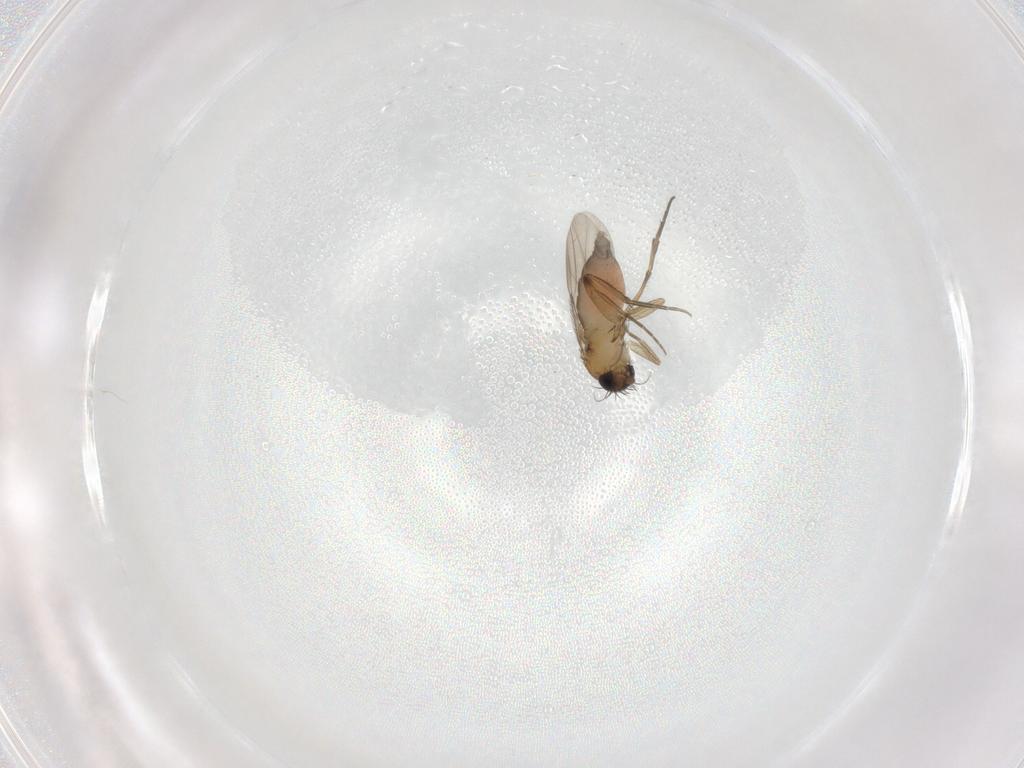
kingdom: Animalia
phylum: Arthropoda
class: Insecta
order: Diptera
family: Phoridae
